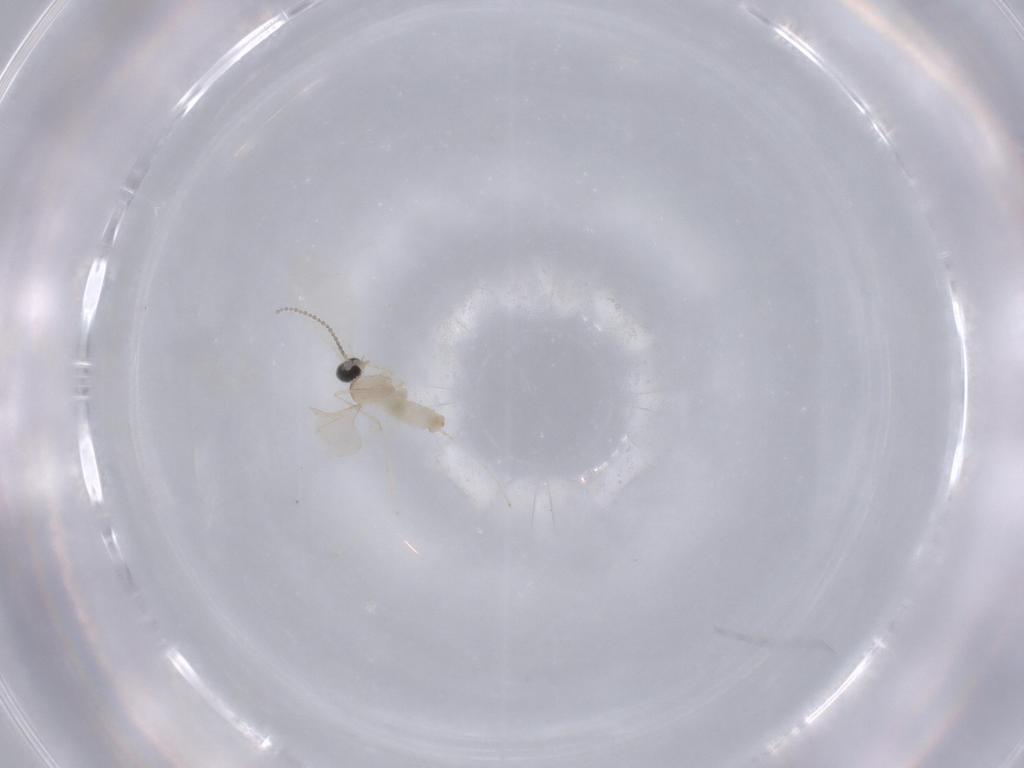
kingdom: Animalia
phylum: Arthropoda
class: Insecta
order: Diptera
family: Cecidomyiidae
